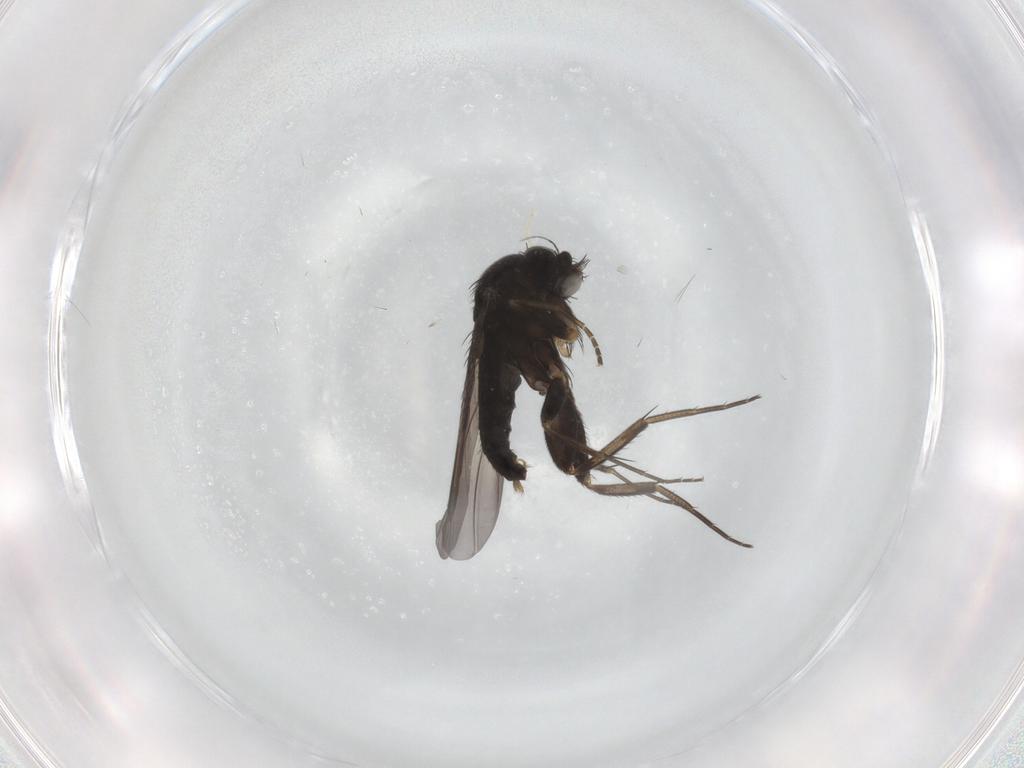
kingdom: Animalia
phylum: Arthropoda
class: Insecta
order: Diptera
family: Phoridae
